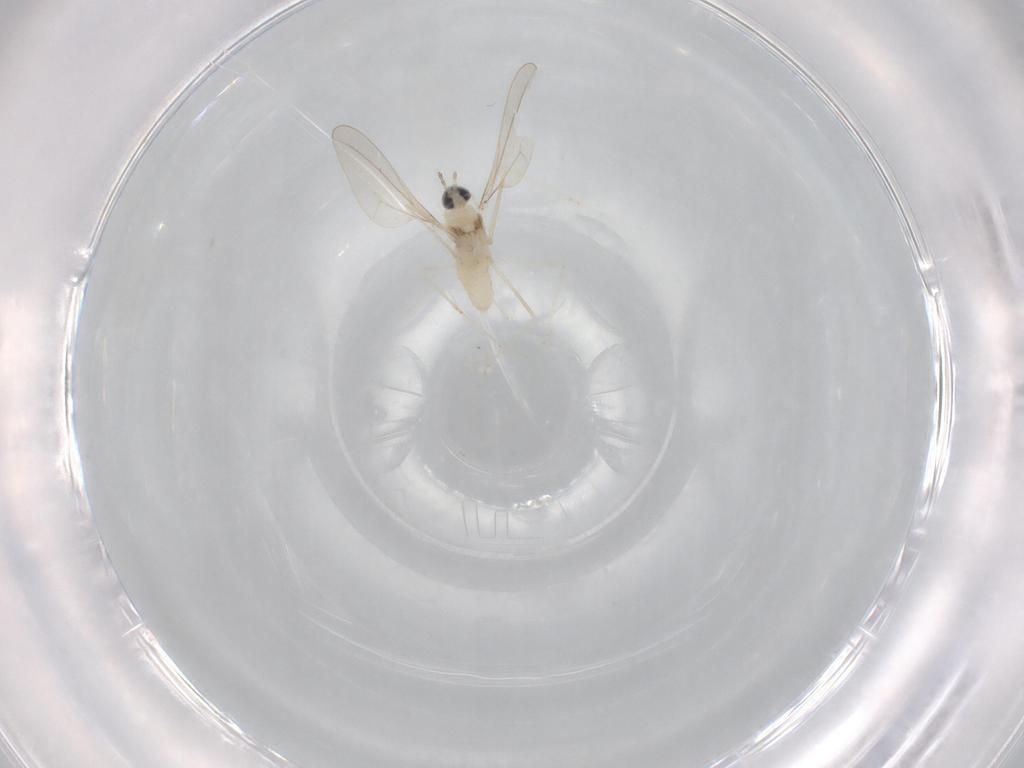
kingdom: Animalia
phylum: Arthropoda
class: Insecta
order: Diptera
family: Cecidomyiidae
